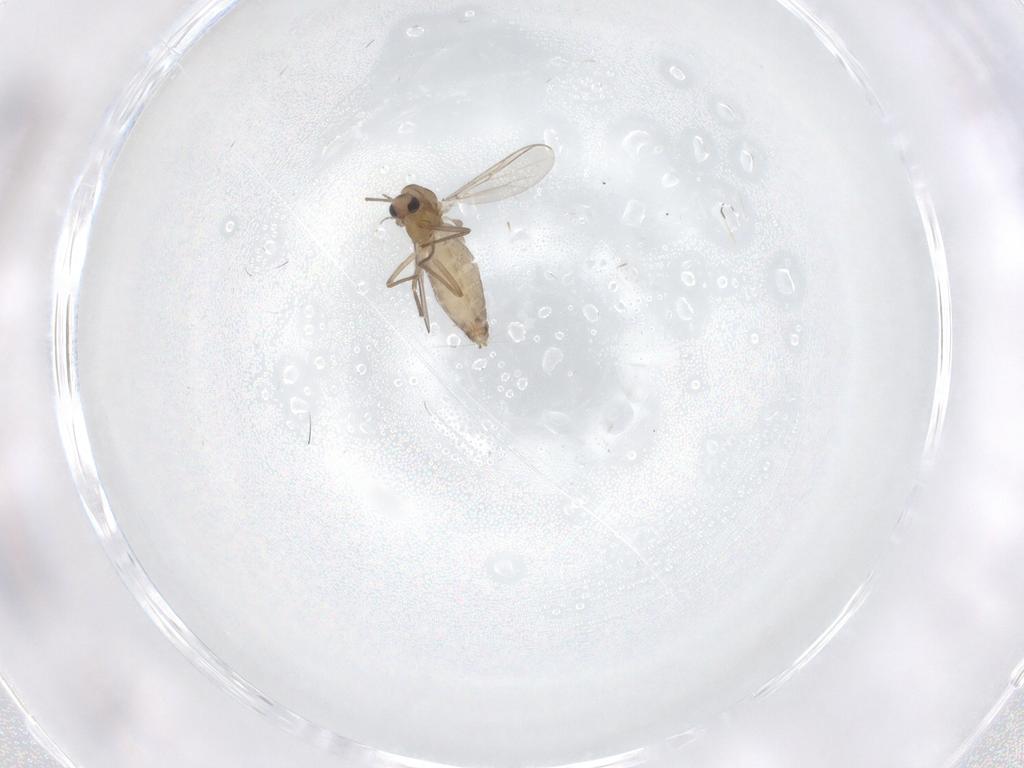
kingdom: Animalia
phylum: Arthropoda
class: Insecta
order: Diptera
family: Chironomidae
